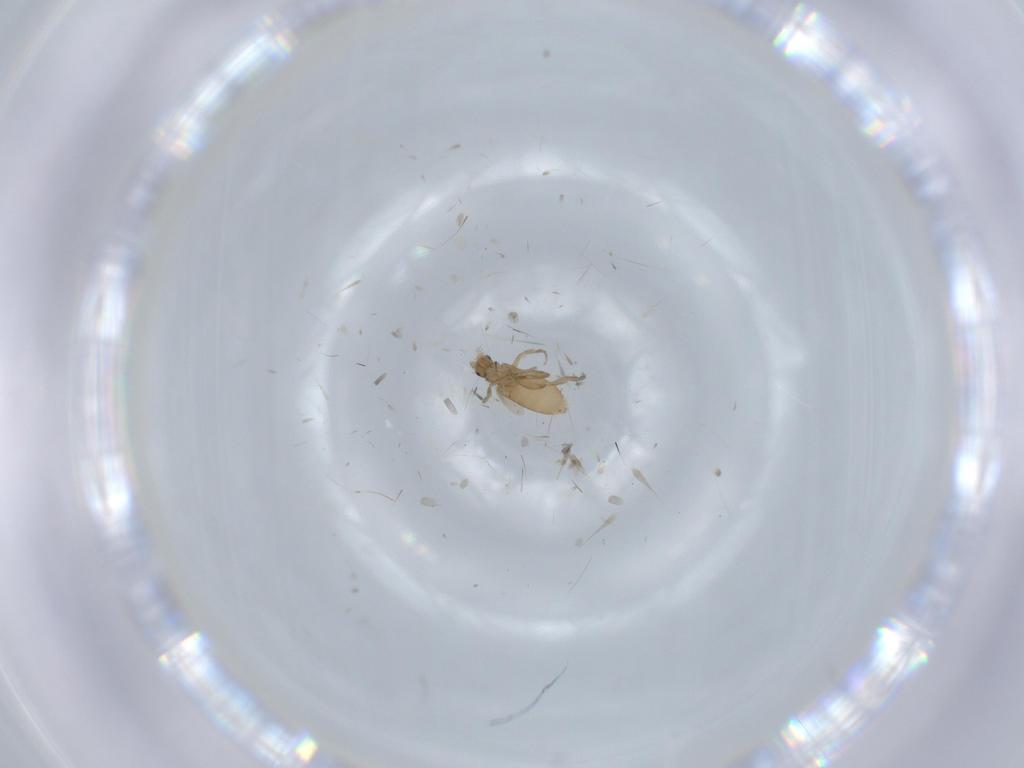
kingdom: Animalia
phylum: Arthropoda
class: Insecta
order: Diptera
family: Phoridae
